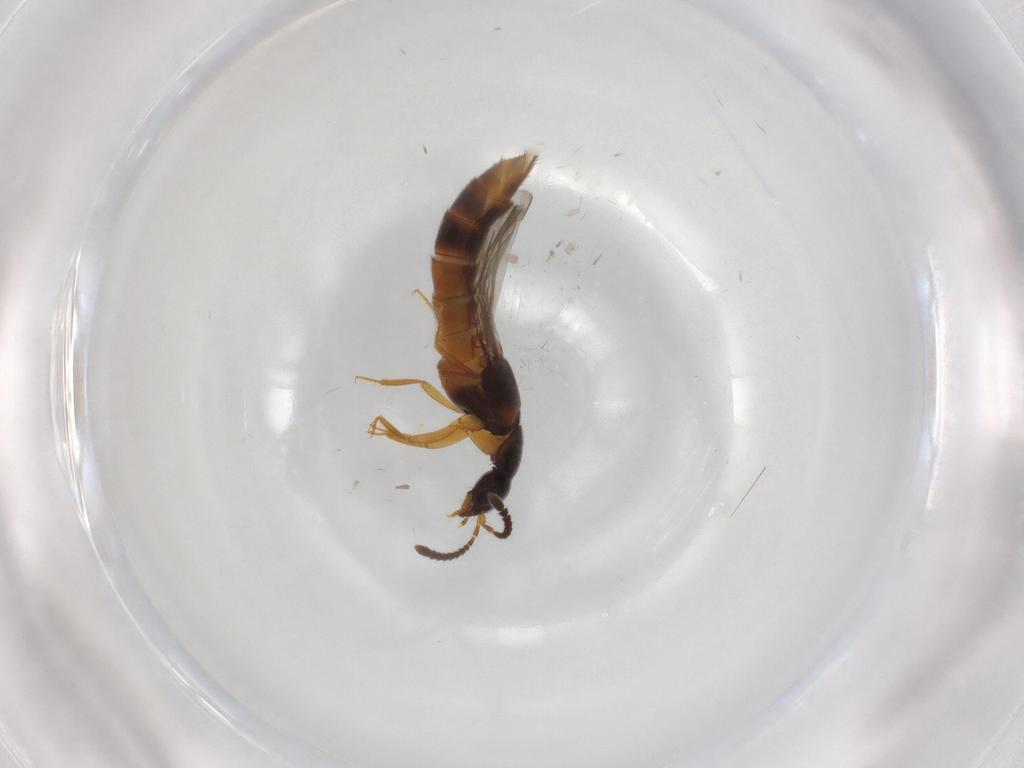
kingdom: Animalia
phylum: Arthropoda
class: Insecta
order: Coleoptera
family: Staphylinidae
